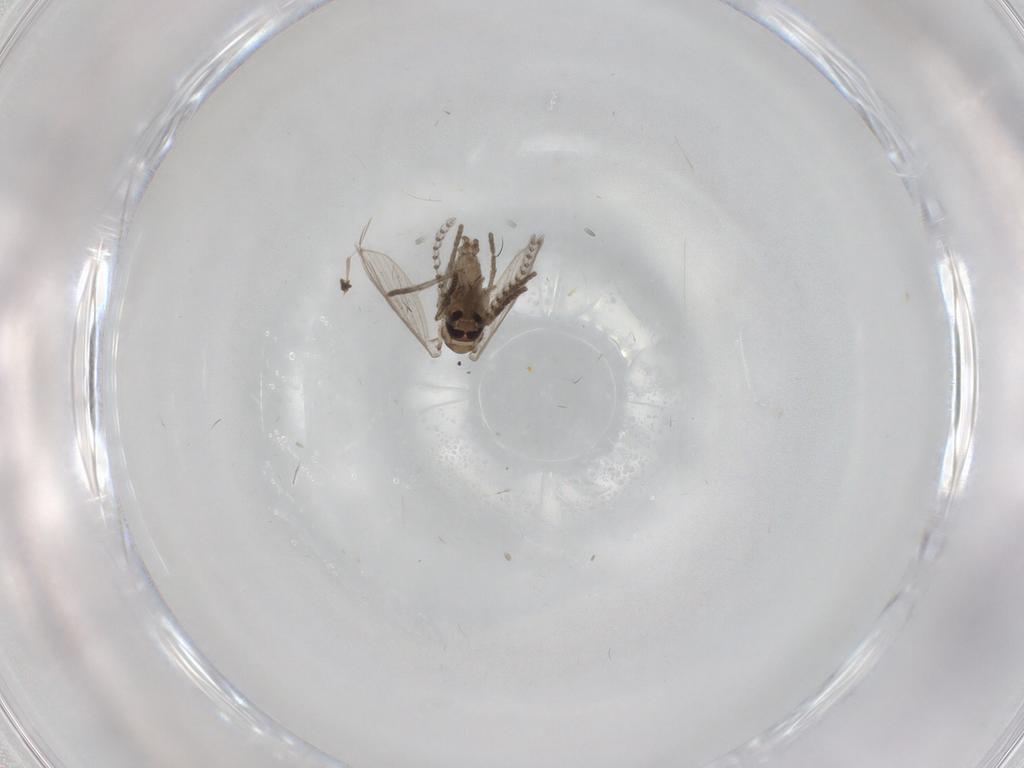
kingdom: Animalia
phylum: Arthropoda
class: Insecta
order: Diptera
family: Psychodidae
